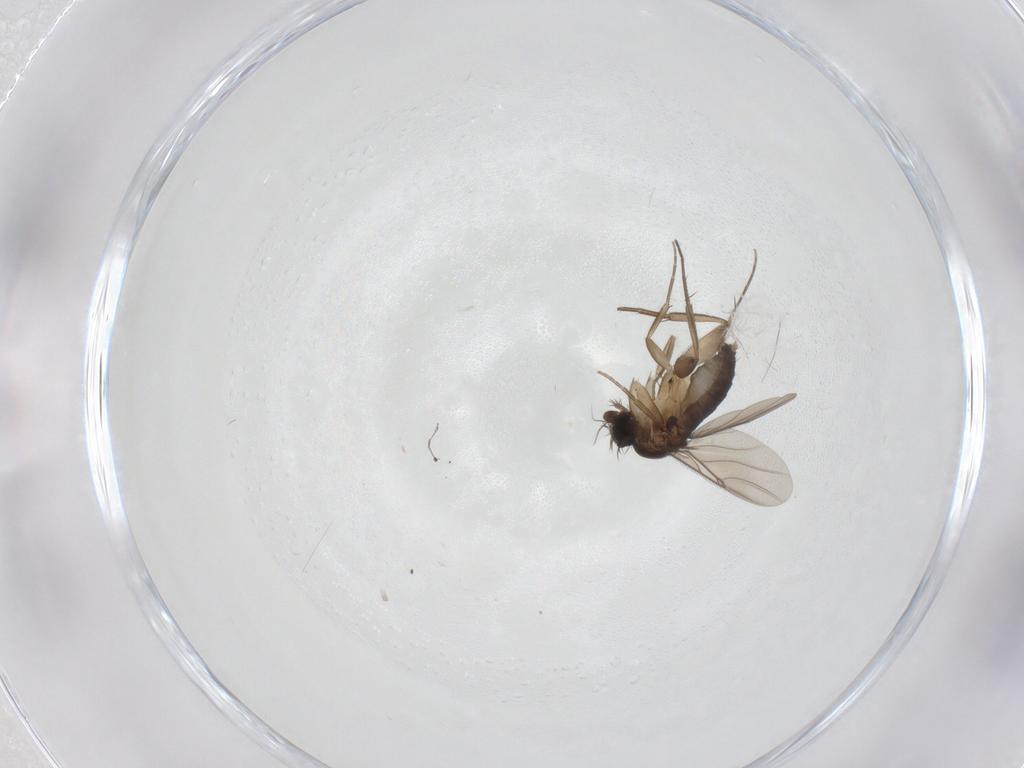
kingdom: Animalia
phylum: Arthropoda
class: Insecta
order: Diptera
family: Phoridae
